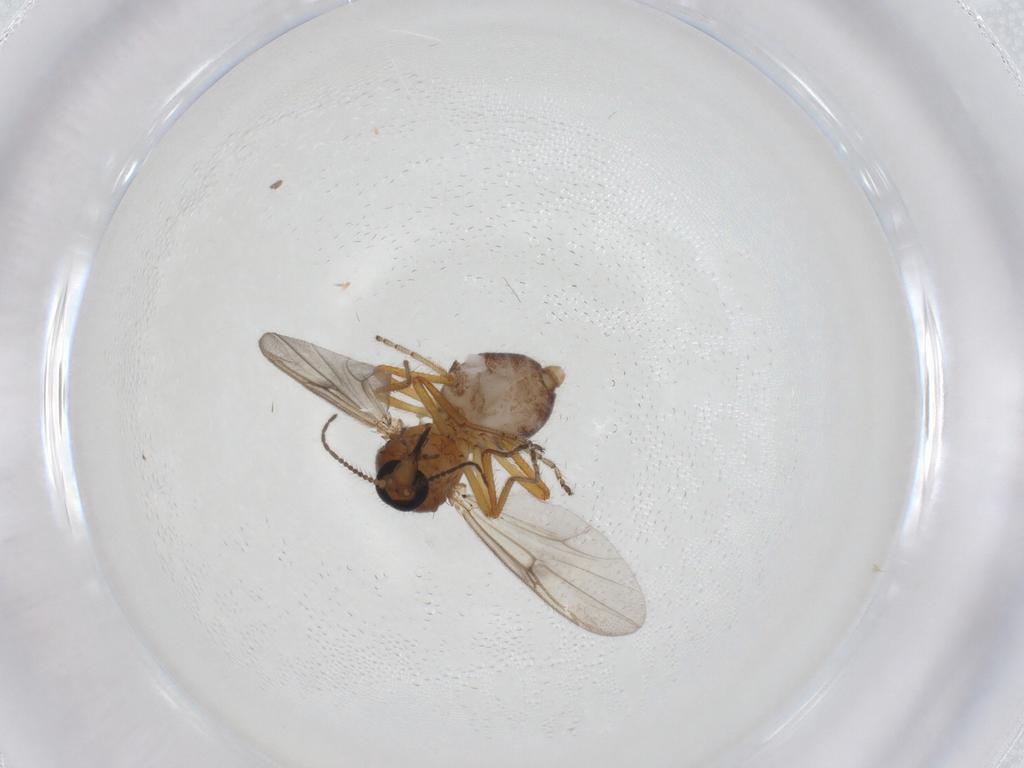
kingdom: Animalia
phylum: Arthropoda
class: Insecta
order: Diptera
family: Ceratopogonidae
